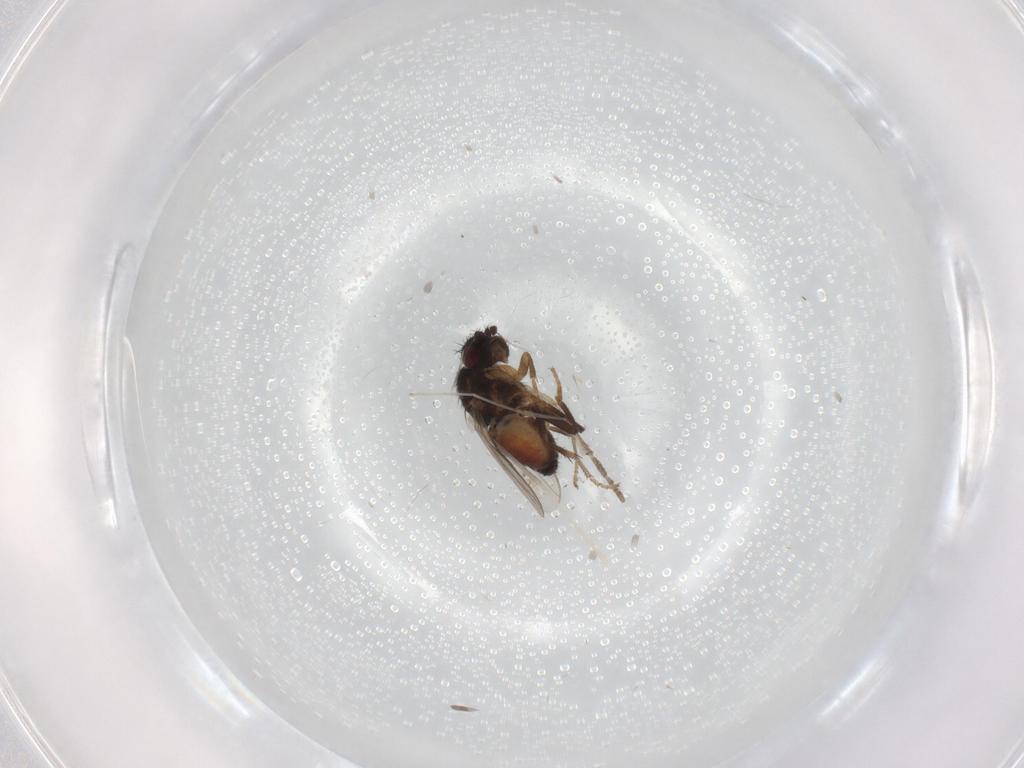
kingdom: Animalia
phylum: Arthropoda
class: Insecta
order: Diptera
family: Sphaeroceridae
